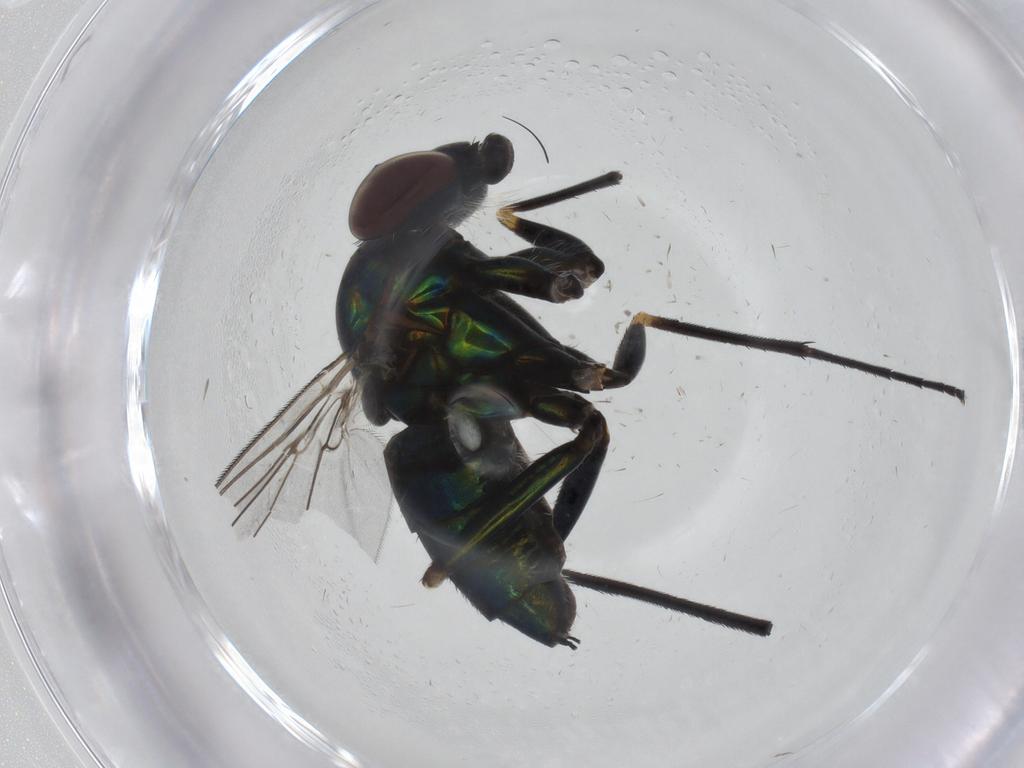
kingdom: Animalia
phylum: Arthropoda
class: Insecta
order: Diptera
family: Dolichopodidae
